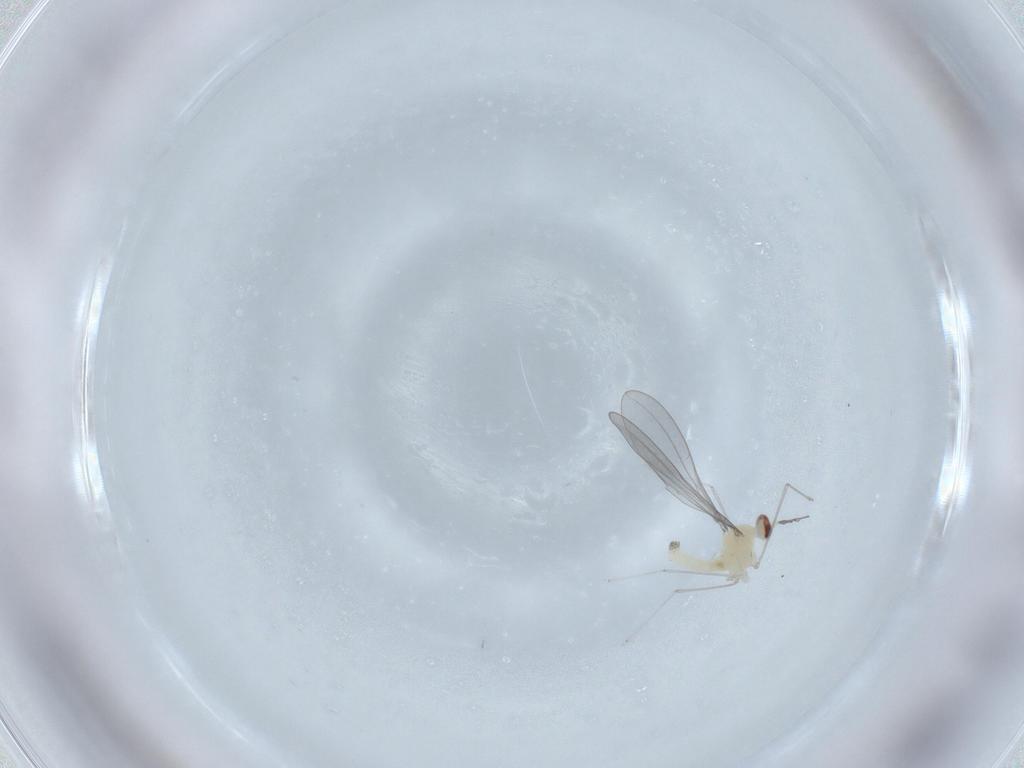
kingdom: Animalia
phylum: Arthropoda
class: Insecta
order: Diptera
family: Cecidomyiidae
